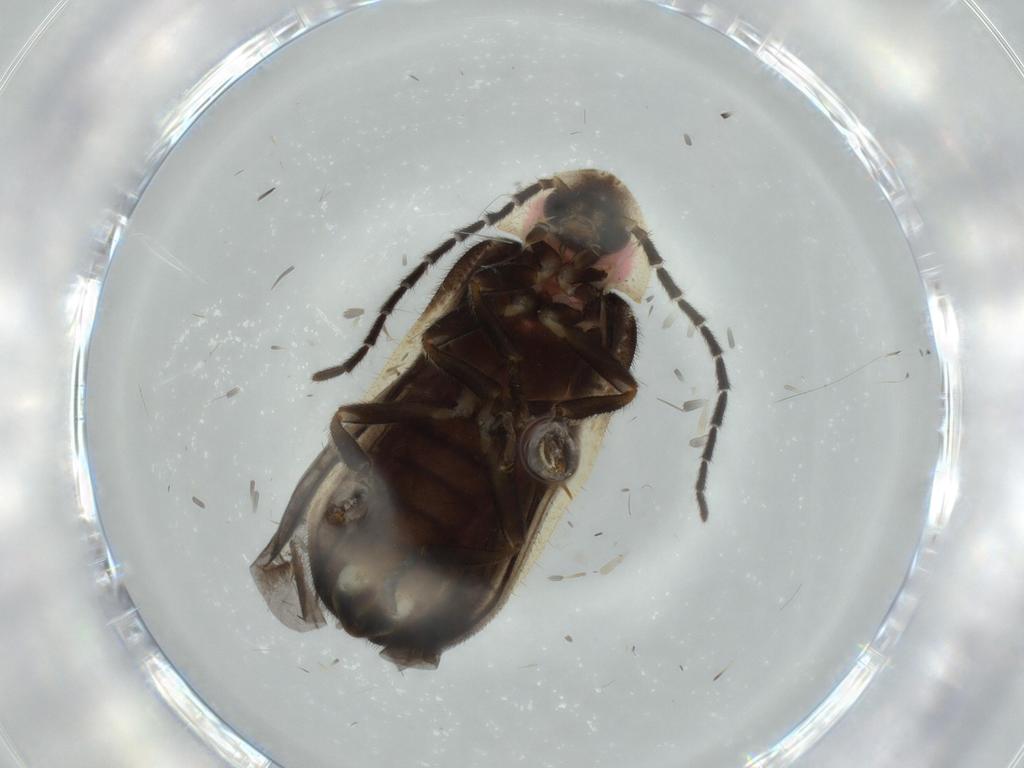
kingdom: Animalia
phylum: Arthropoda
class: Insecta
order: Coleoptera
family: Lampyridae
